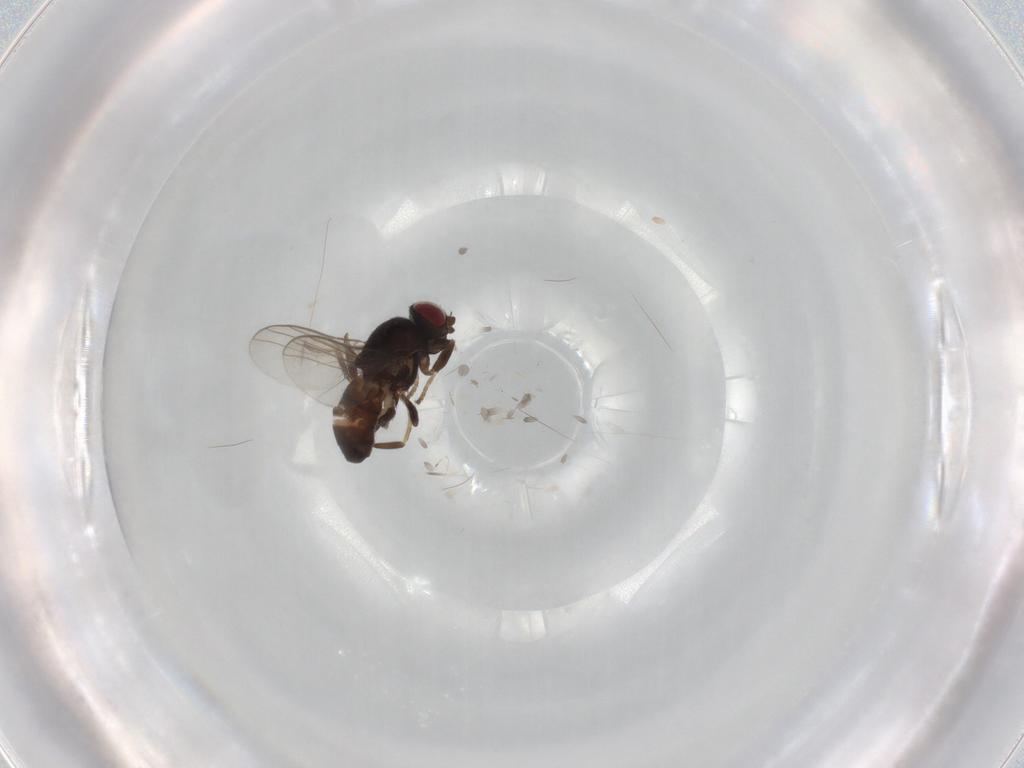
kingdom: Animalia
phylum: Arthropoda
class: Insecta
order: Diptera
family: Chloropidae
